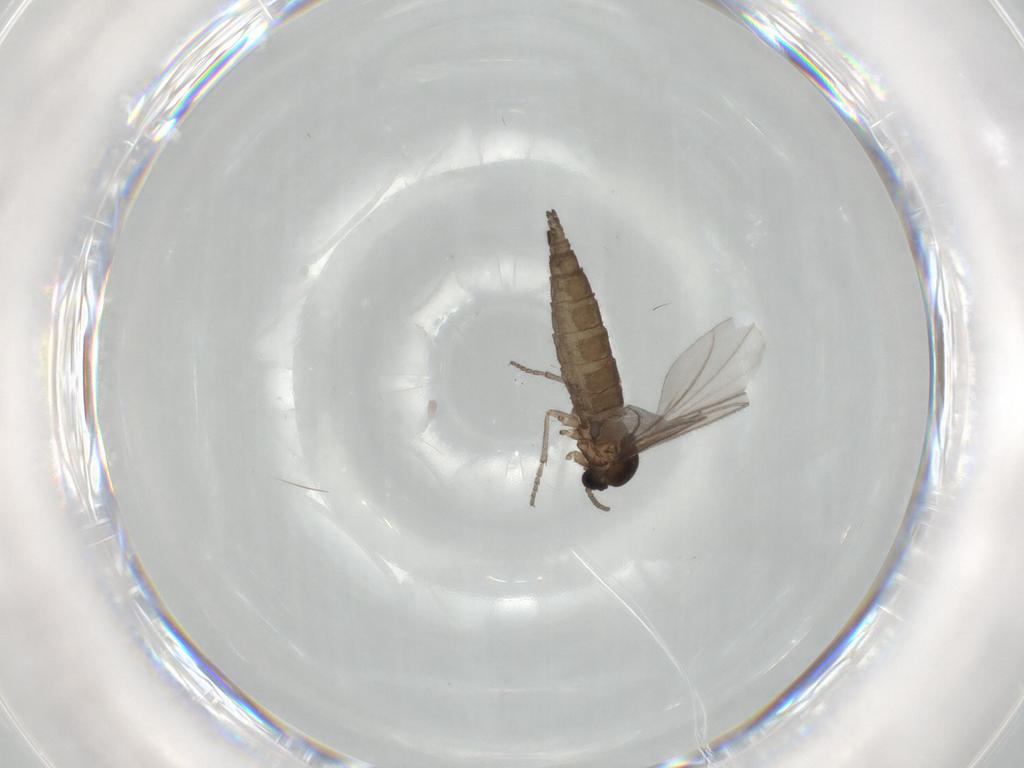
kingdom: Animalia
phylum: Arthropoda
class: Insecta
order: Diptera
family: Sciaridae
